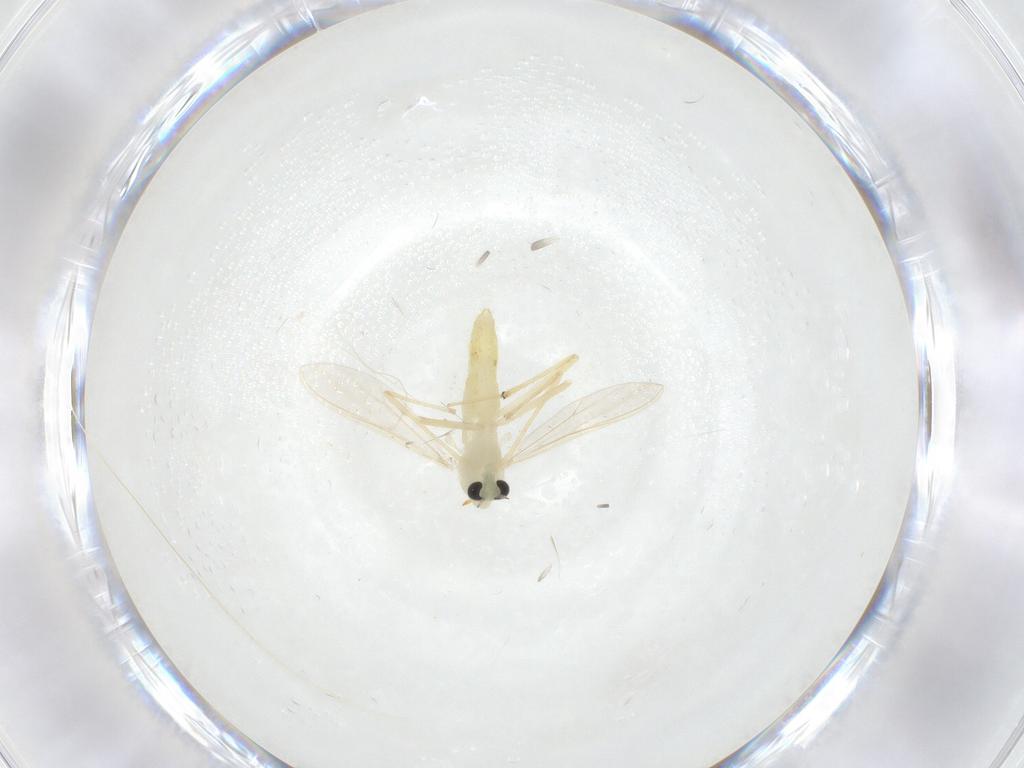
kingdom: Animalia
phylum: Arthropoda
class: Insecta
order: Diptera
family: Chironomidae
